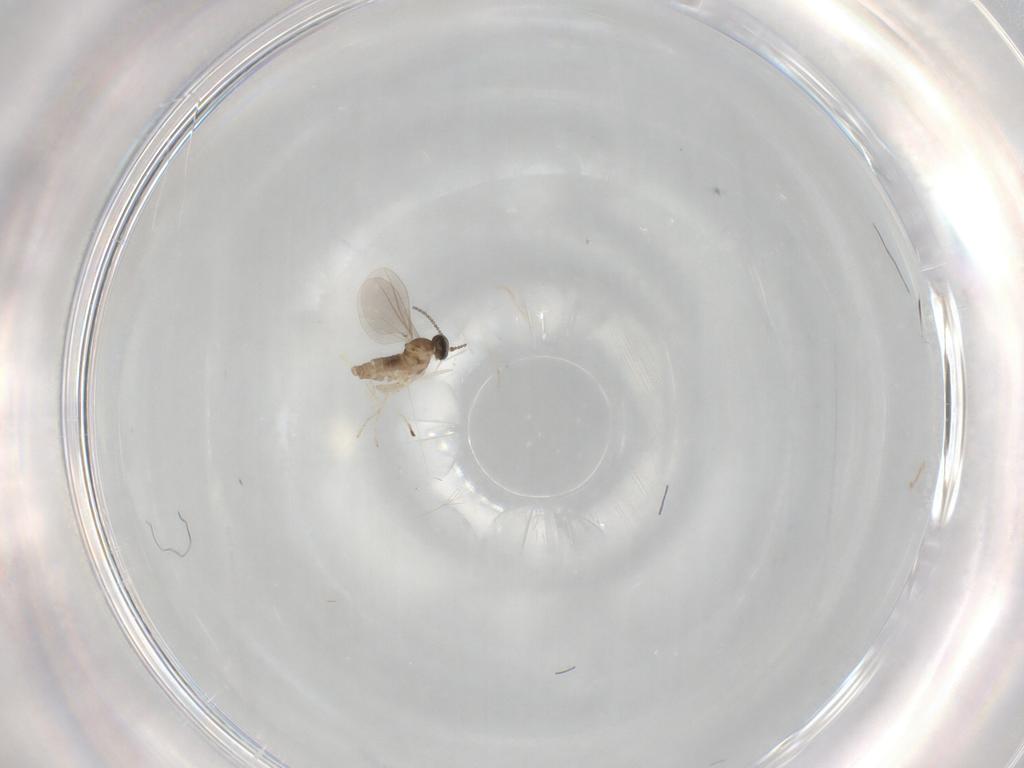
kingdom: Animalia
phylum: Arthropoda
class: Insecta
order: Diptera
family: Cecidomyiidae
